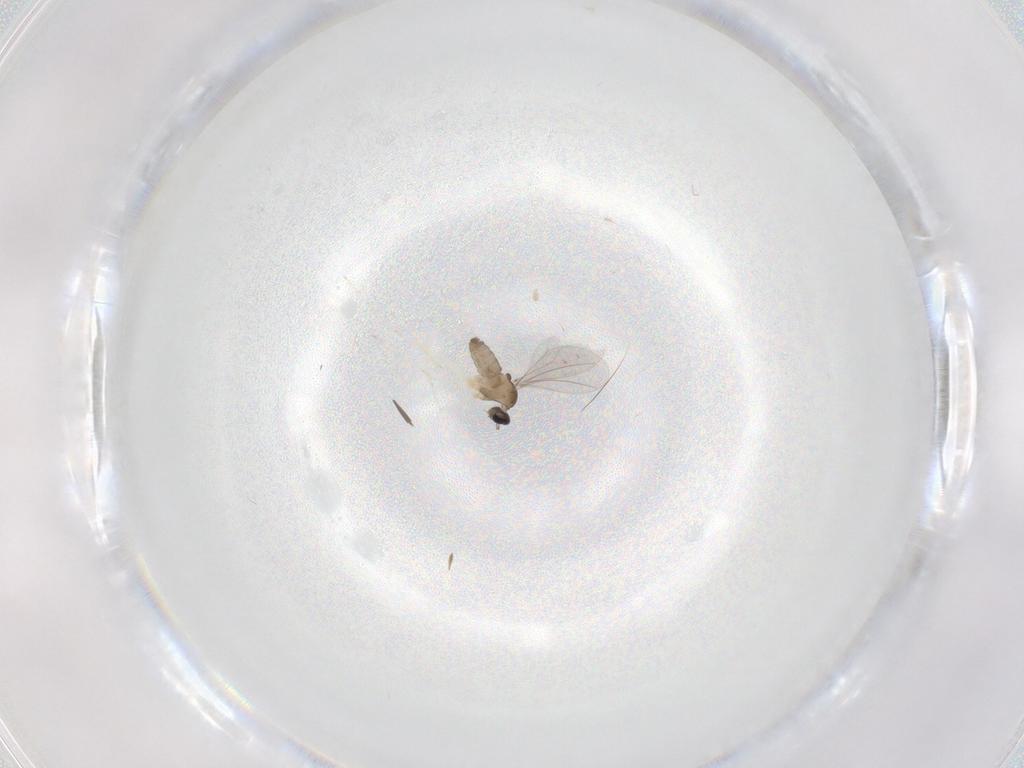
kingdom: Animalia
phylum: Arthropoda
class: Insecta
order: Diptera
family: Cecidomyiidae
